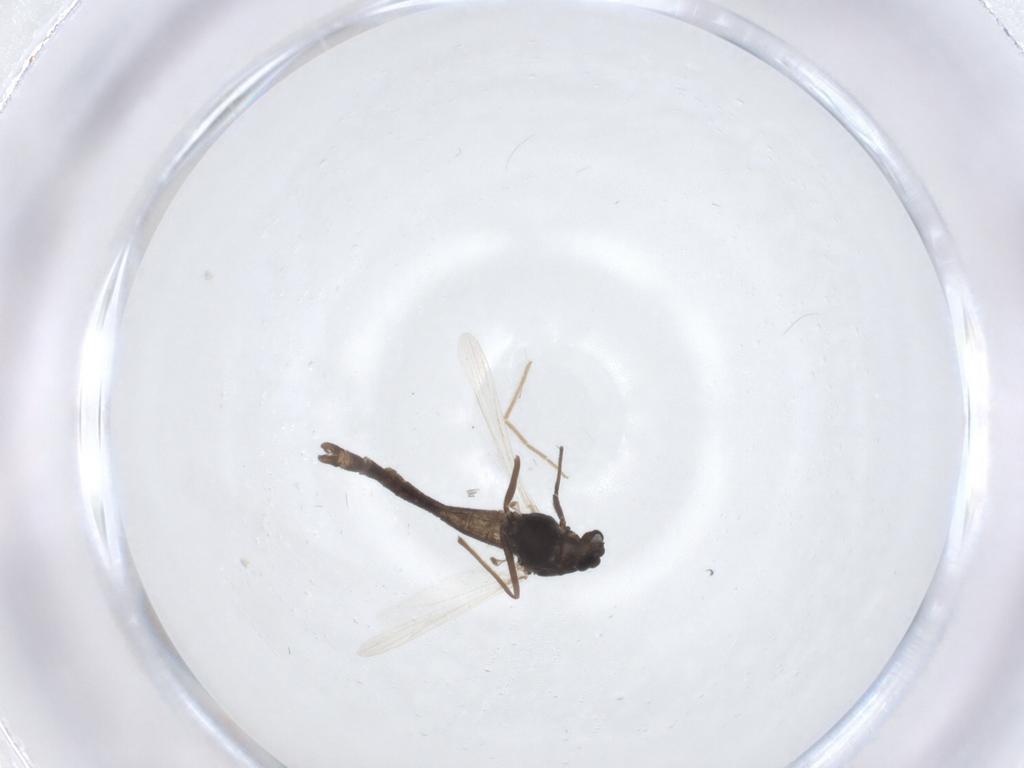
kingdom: Animalia
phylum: Arthropoda
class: Insecta
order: Diptera
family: Chironomidae
